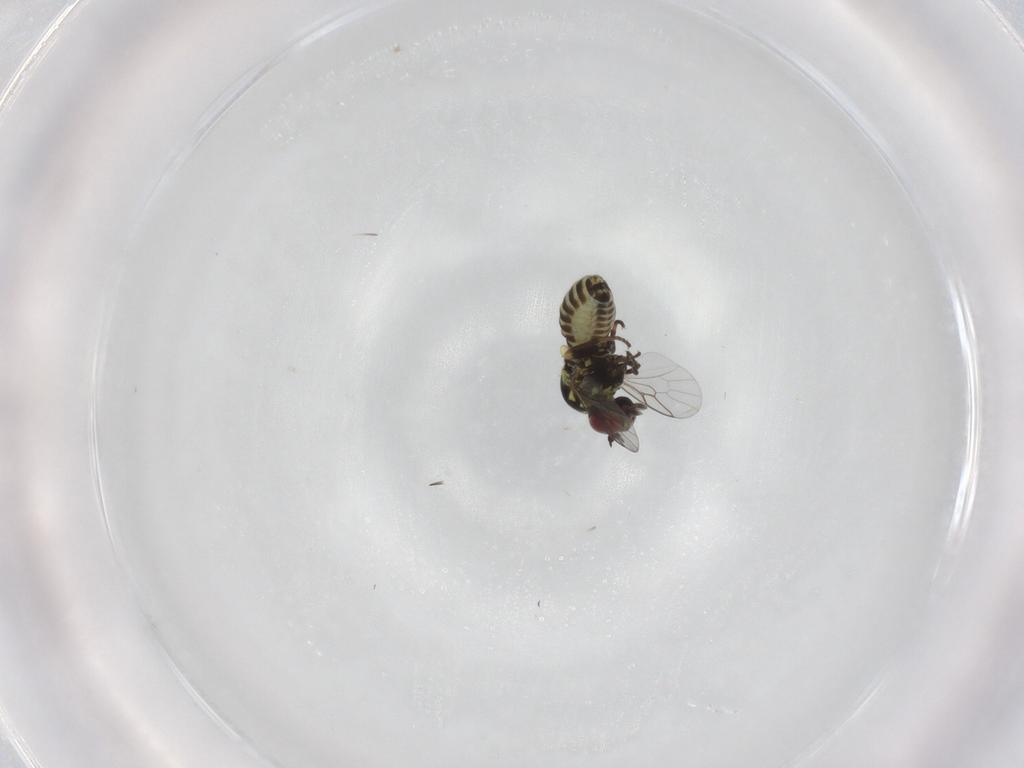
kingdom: Animalia
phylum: Arthropoda
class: Insecta
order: Diptera
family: Mythicomyiidae
